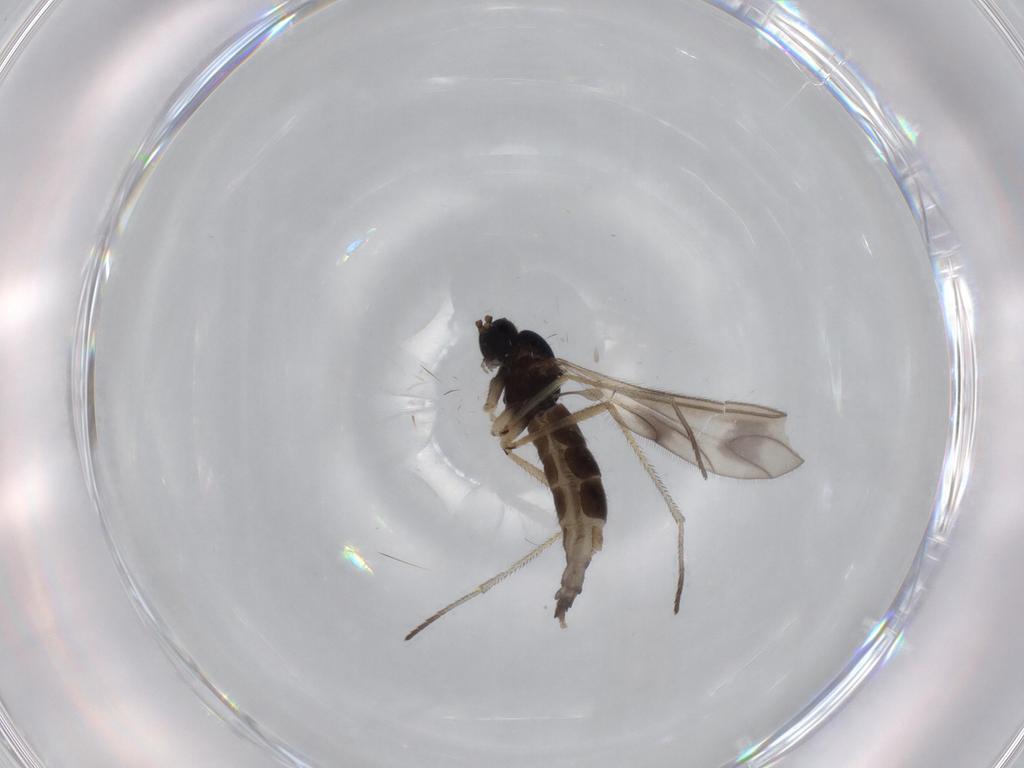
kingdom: Animalia
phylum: Arthropoda
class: Insecta
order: Diptera
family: Sciaridae
